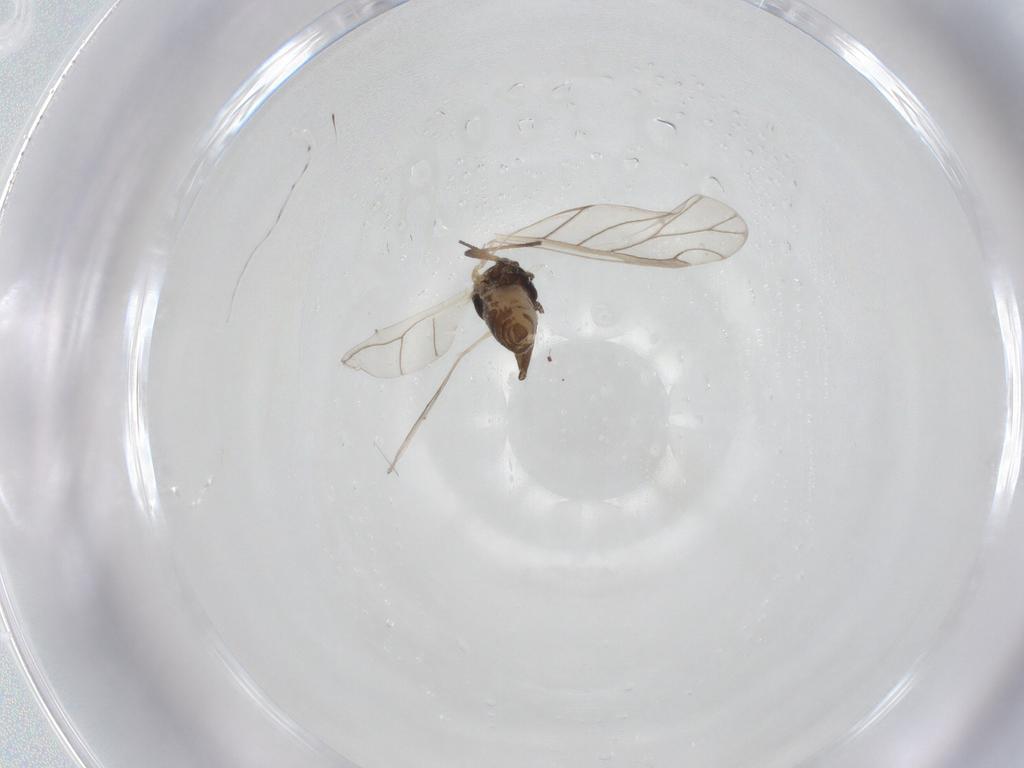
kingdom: Animalia
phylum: Arthropoda
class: Insecta
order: Hemiptera
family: Aphididae
